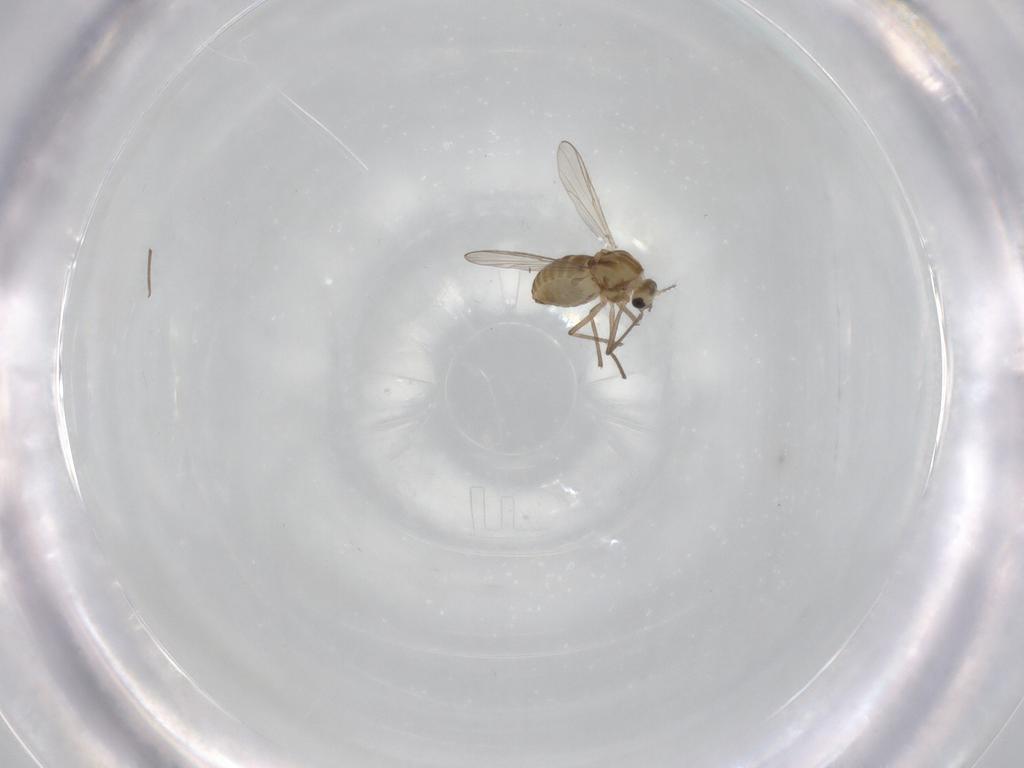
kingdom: Animalia
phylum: Arthropoda
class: Insecta
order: Diptera
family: Chironomidae
